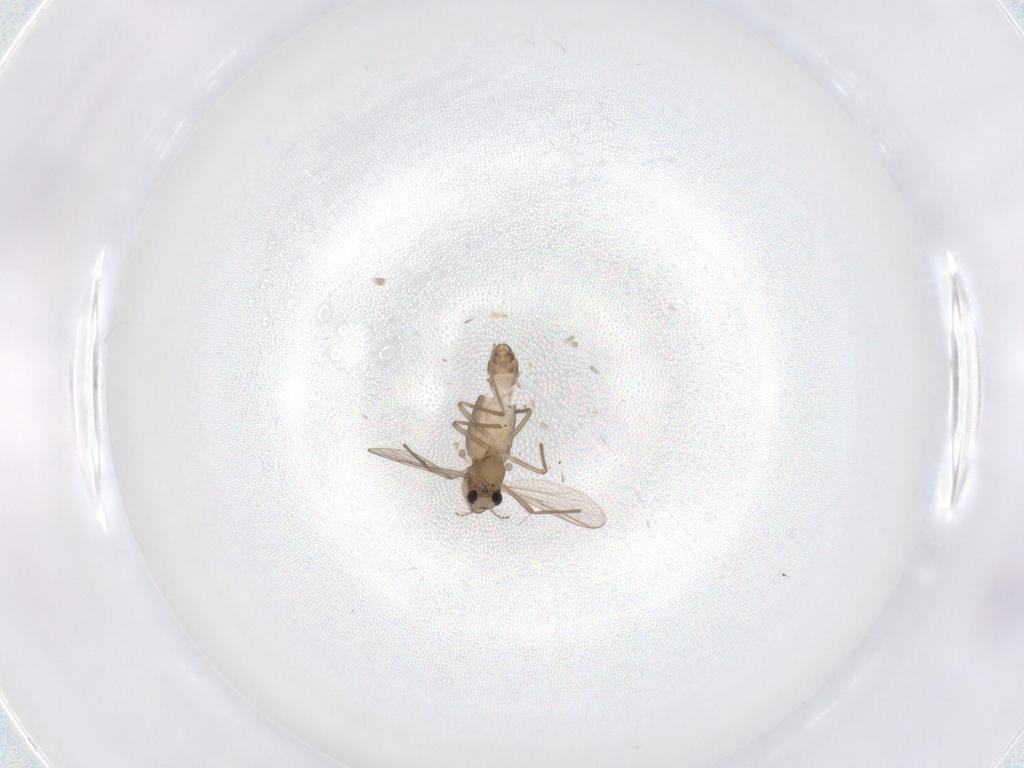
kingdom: Animalia
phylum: Arthropoda
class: Insecta
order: Diptera
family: Chironomidae
